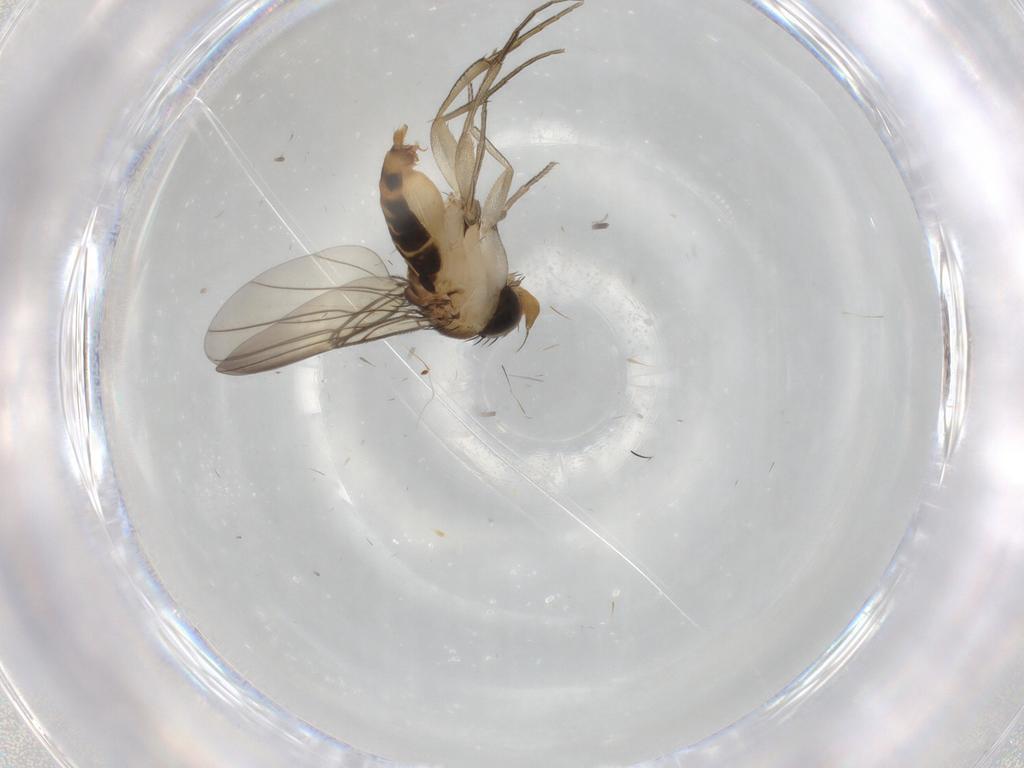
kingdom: Animalia
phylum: Arthropoda
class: Insecta
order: Diptera
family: Phoridae
